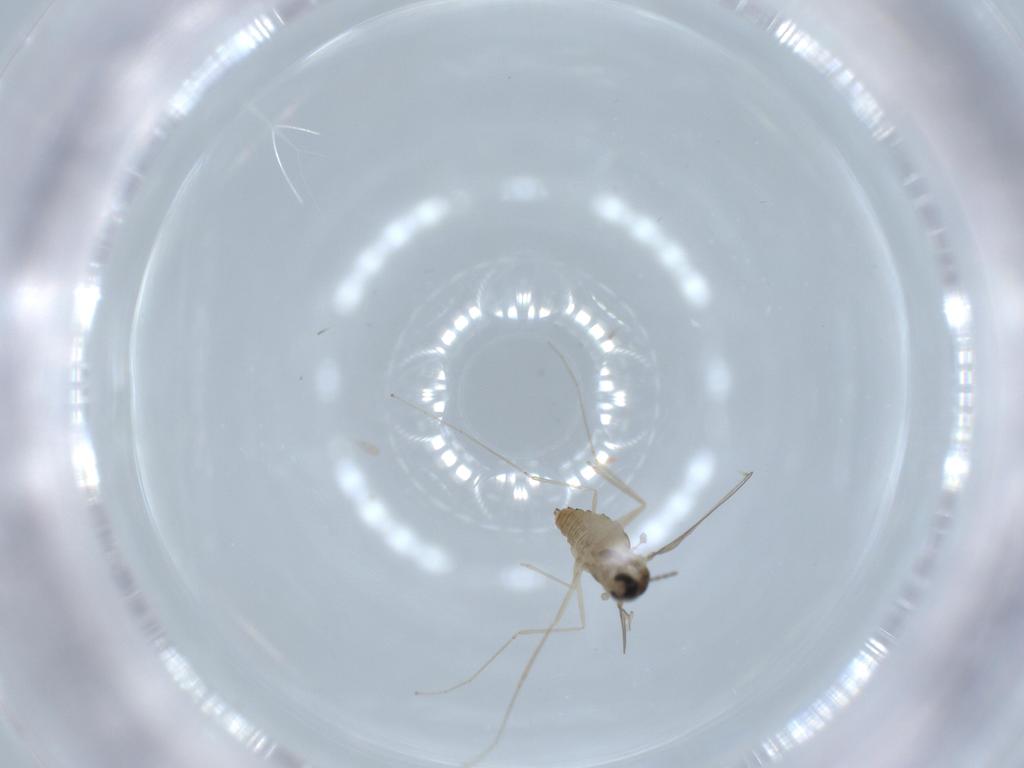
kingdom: Animalia
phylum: Arthropoda
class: Insecta
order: Diptera
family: Cecidomyiidae
